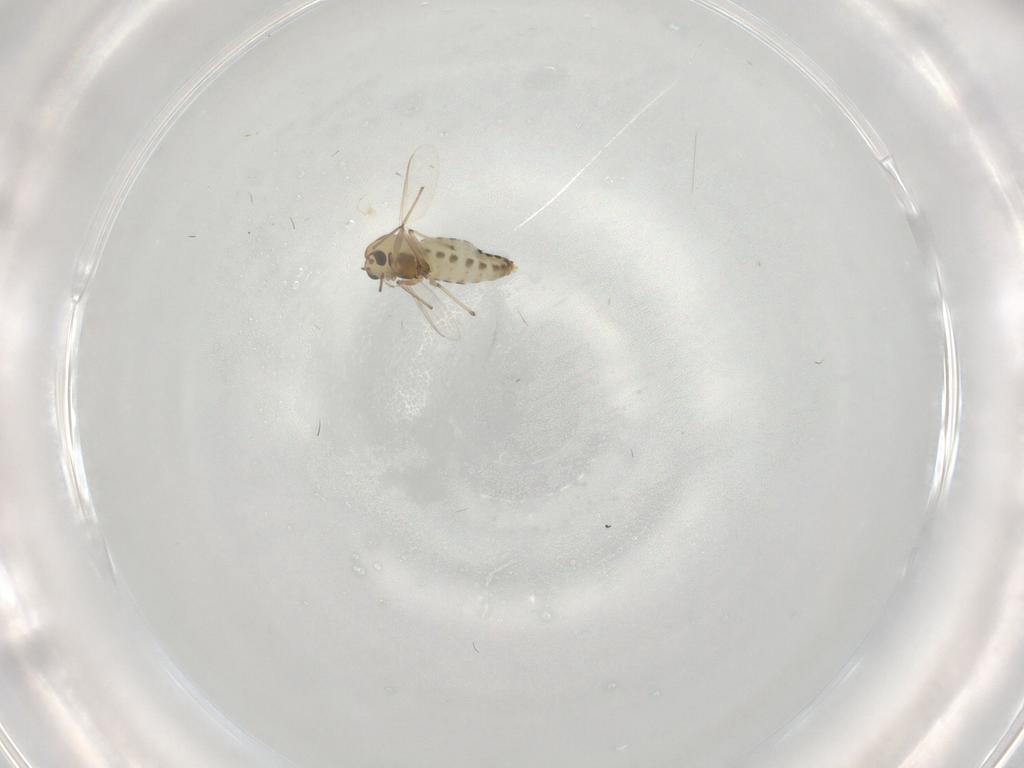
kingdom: Animalia
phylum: Arthropoda
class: Insecta
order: Diptera
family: Chironomidae
